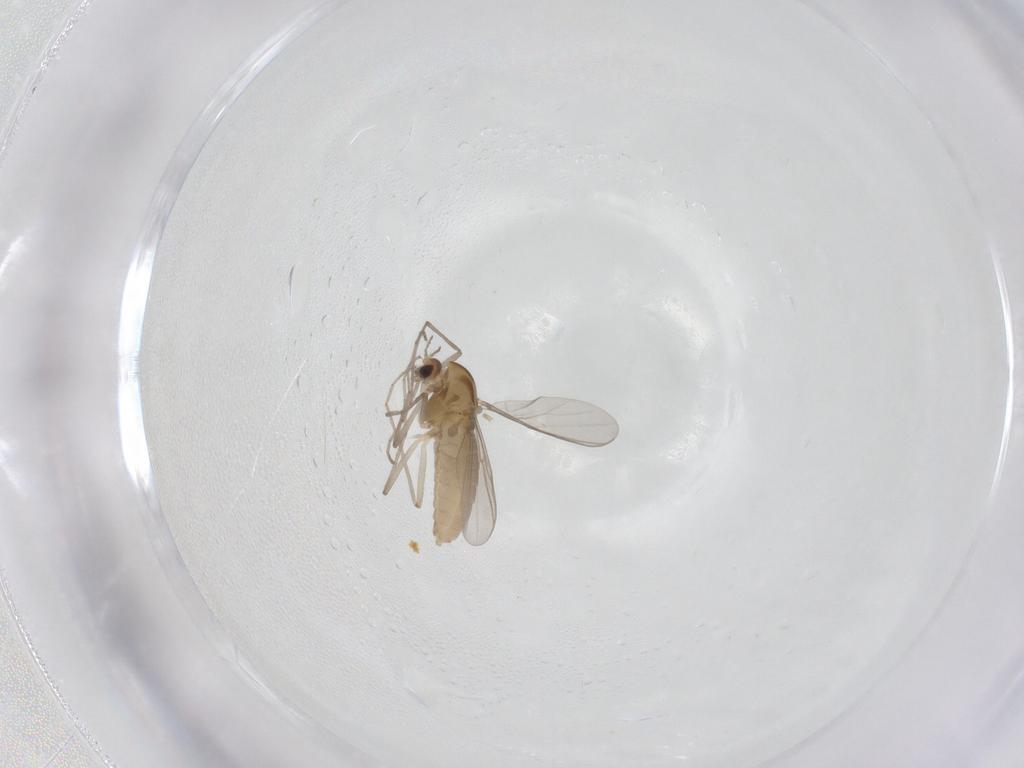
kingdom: Animalia
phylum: Arthropoda
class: Insecta
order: Diptera
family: Chironomidae
